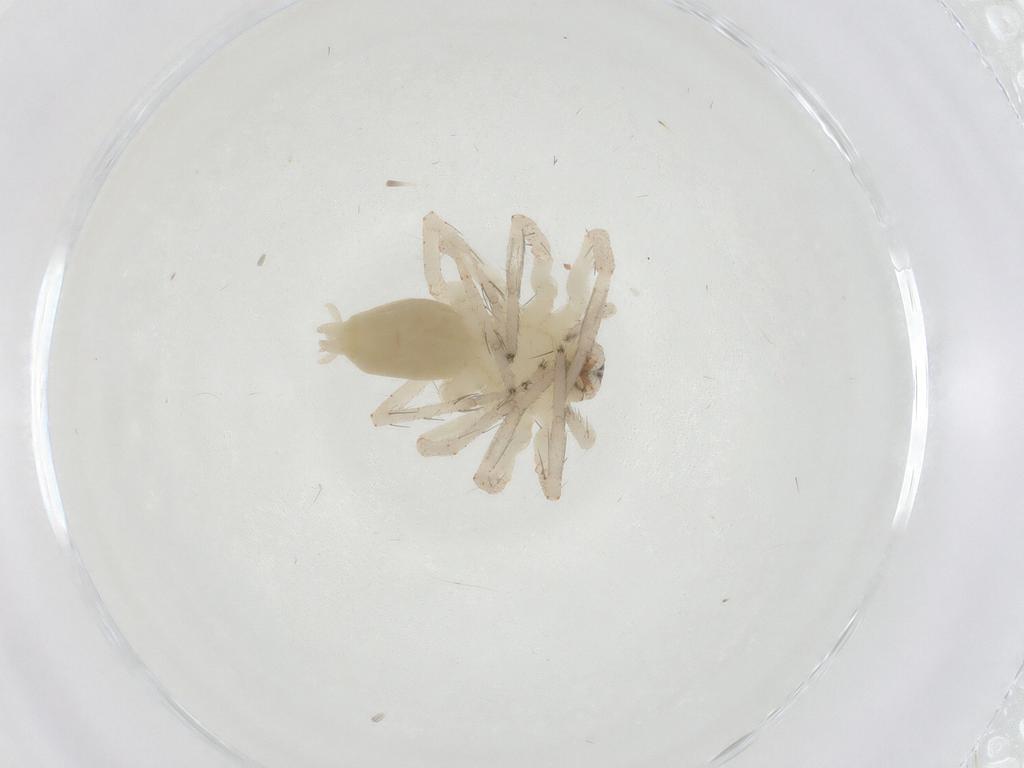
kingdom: Animalia
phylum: Arthropoda
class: Arachnida
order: Araneae
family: Anyphaenidae
